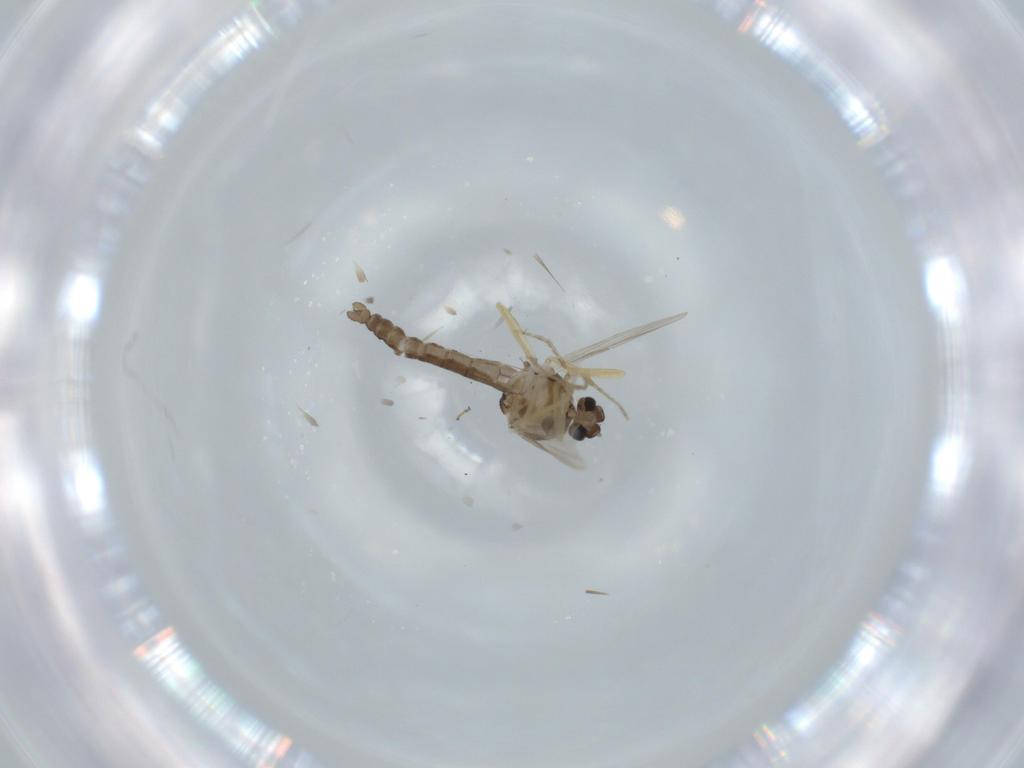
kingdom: Animalia
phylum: Arthropoda
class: Insecta
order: Diptera
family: Ceratopogonidae
